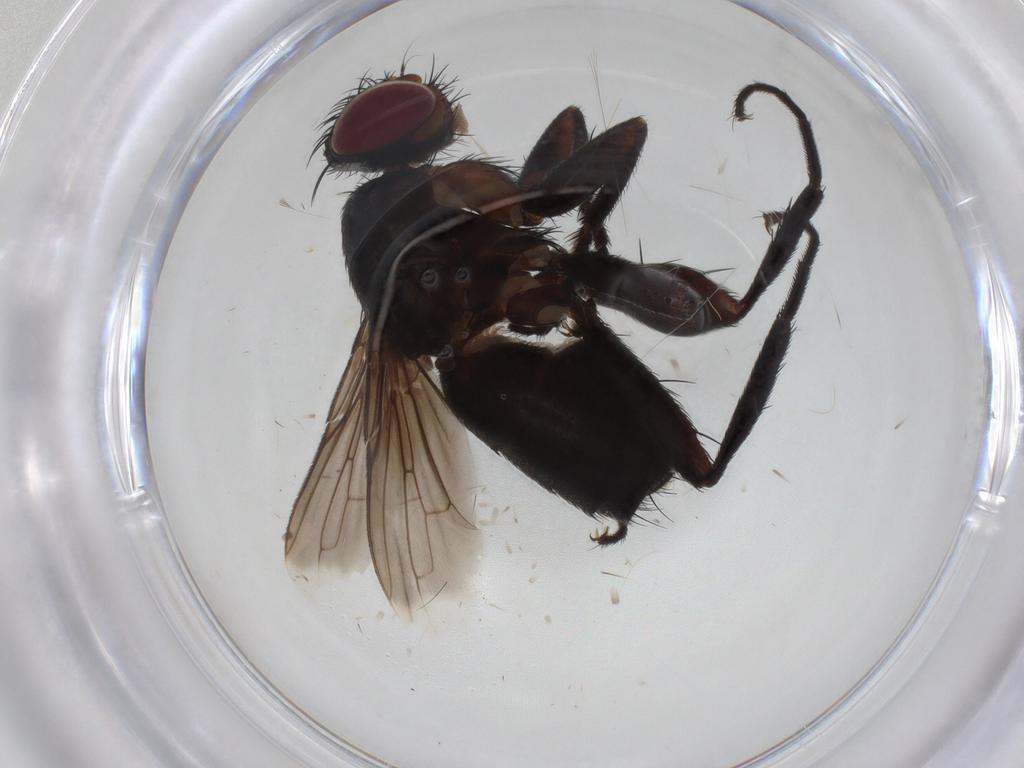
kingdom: Animalia
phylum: Arthropoda
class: Insecta
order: Diptera
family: Tachinidae
